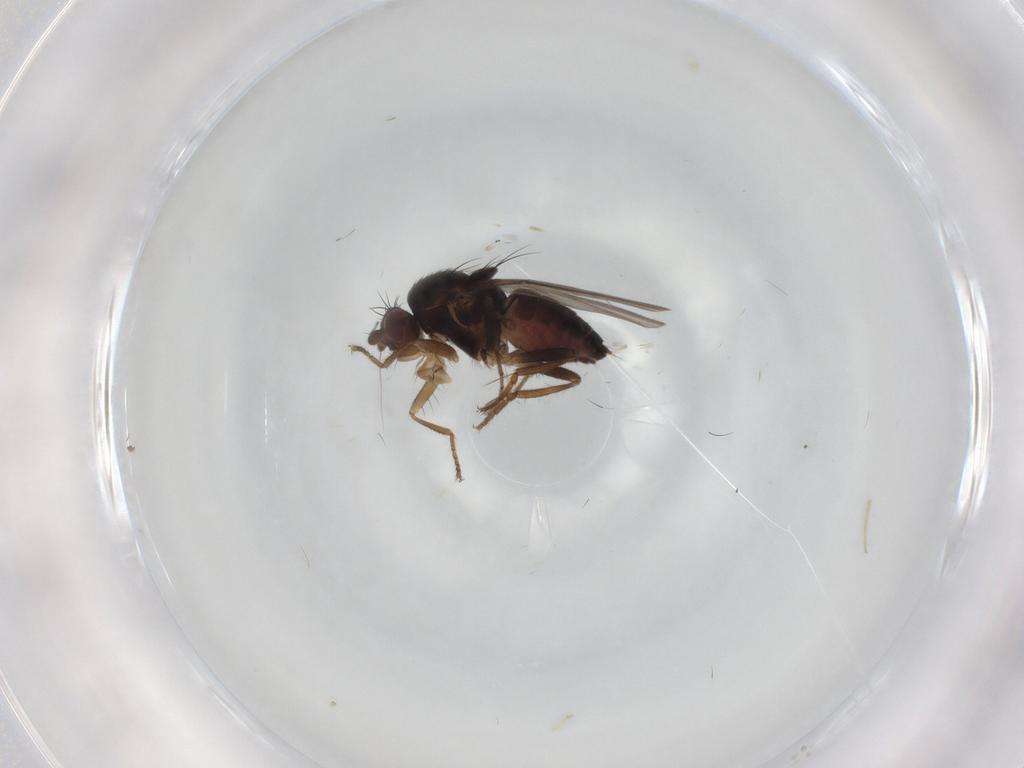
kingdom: Animalia
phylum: Arthropoda
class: Insecta
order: Diptera
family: Sphaeroceridae
